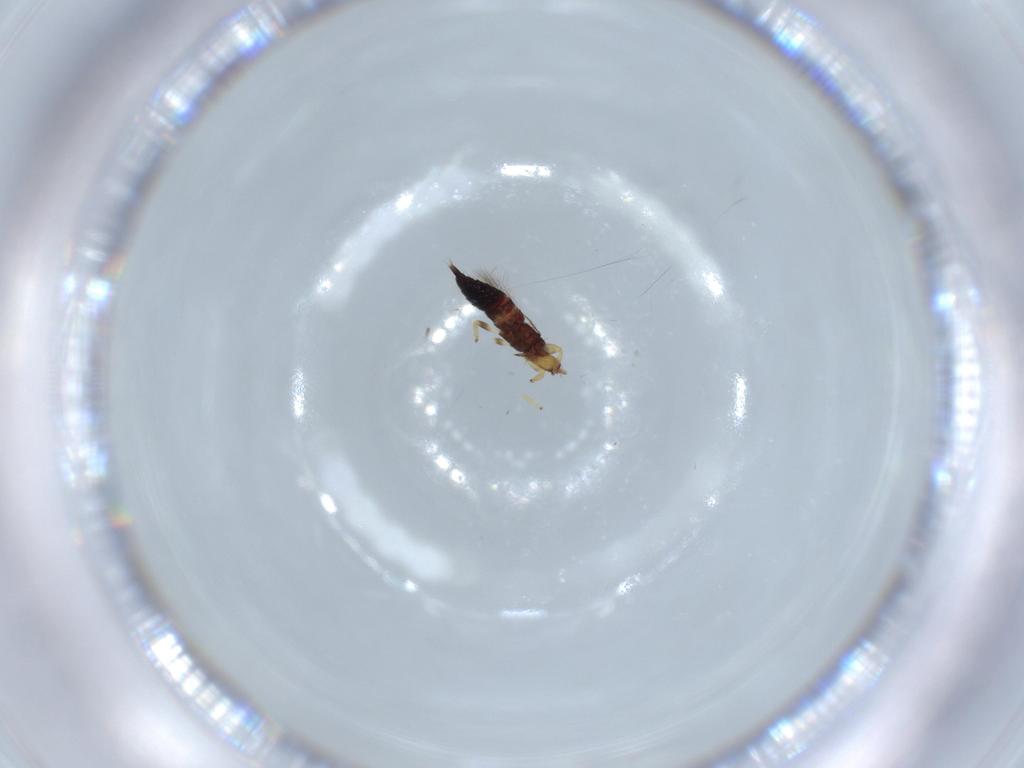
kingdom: Animalia
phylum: Arthropoda
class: Insecta
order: Thysanoptera
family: Phlaeothripidae
